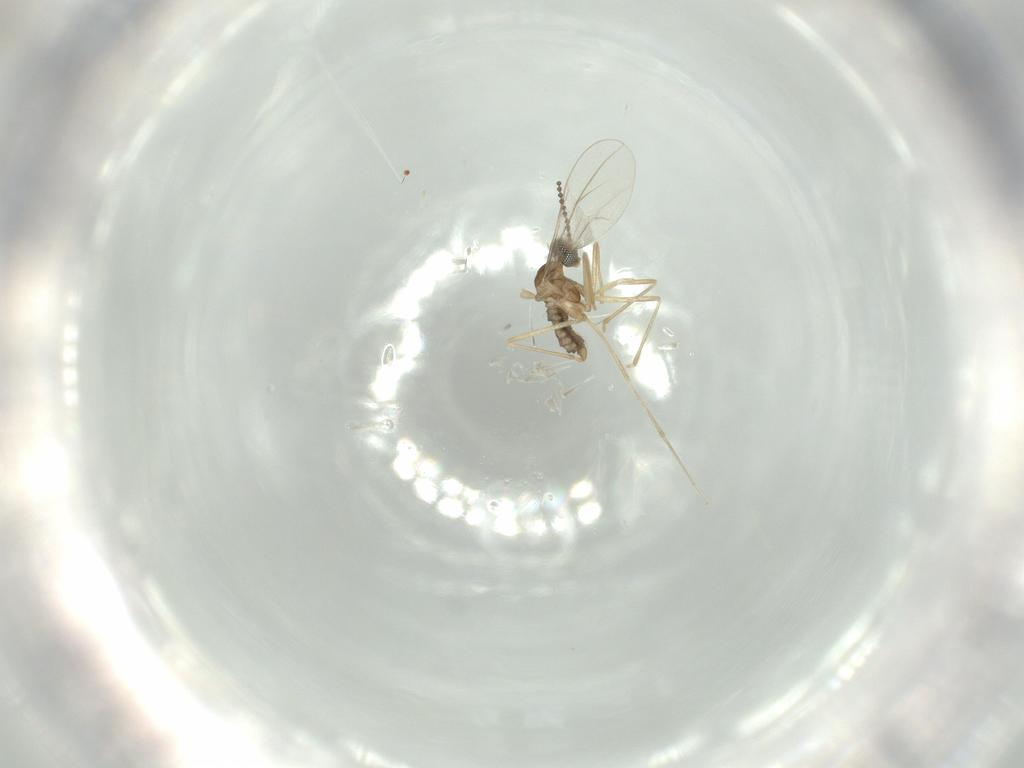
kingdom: Animalia
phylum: Arthropoda
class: Insecta
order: Diptera
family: Cecidomyiidae
